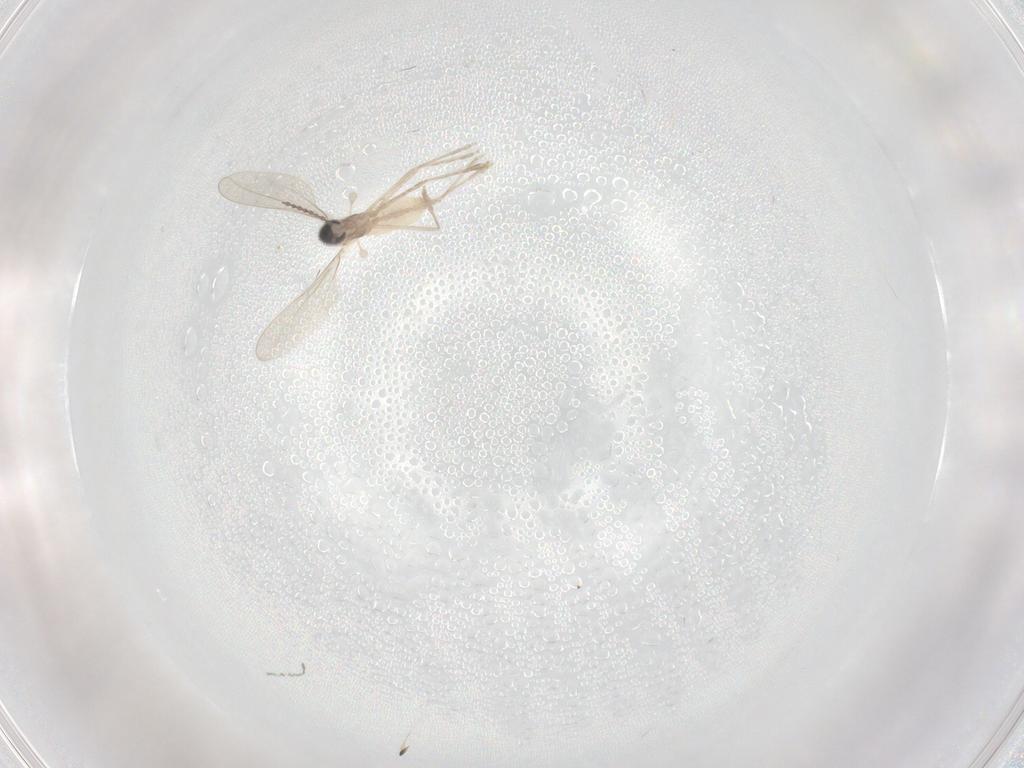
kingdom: Animalia
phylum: Arthropoda
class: Insecta
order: Diptera
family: Cecidomyiidae
